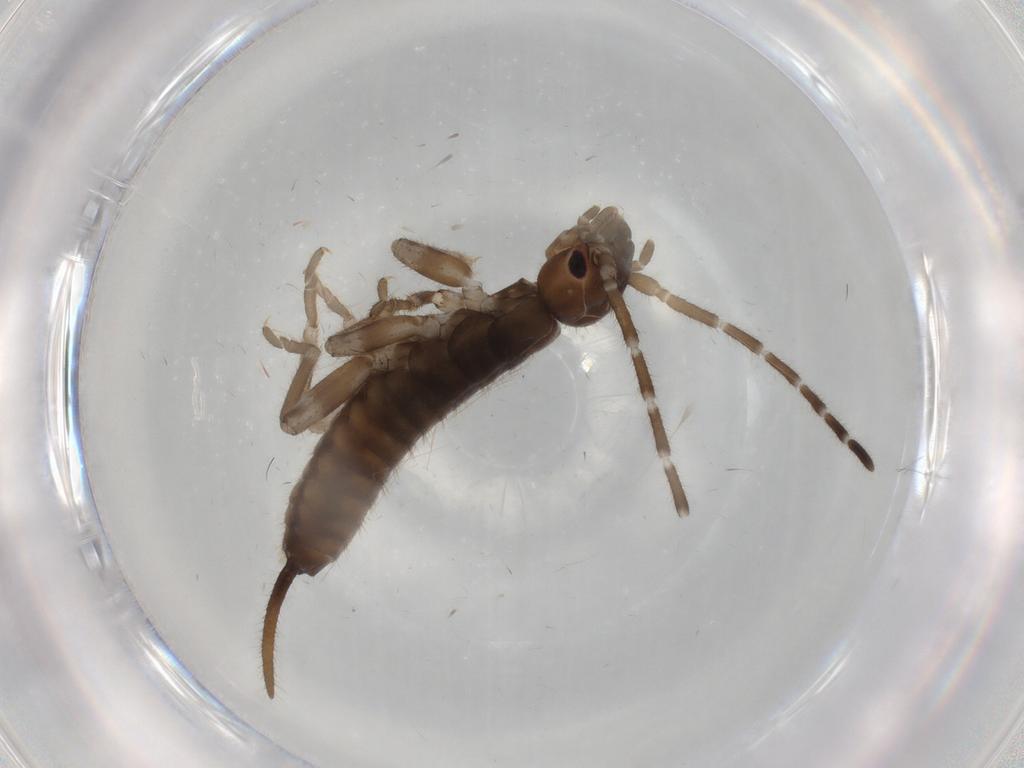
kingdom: Animalia
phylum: Arthropoda
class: Insecta
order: Dermaptera
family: Spongiphoridae
